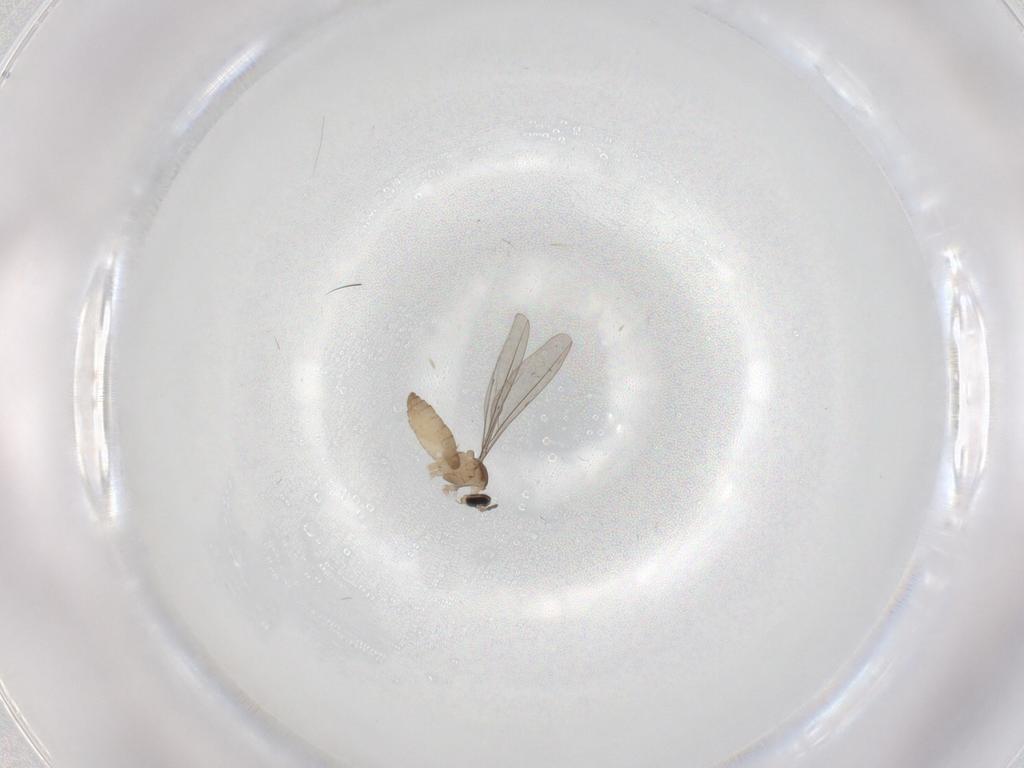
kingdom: Animalia
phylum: Arthropoda
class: Insecta
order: Diptera
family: Cecidomyiidae
